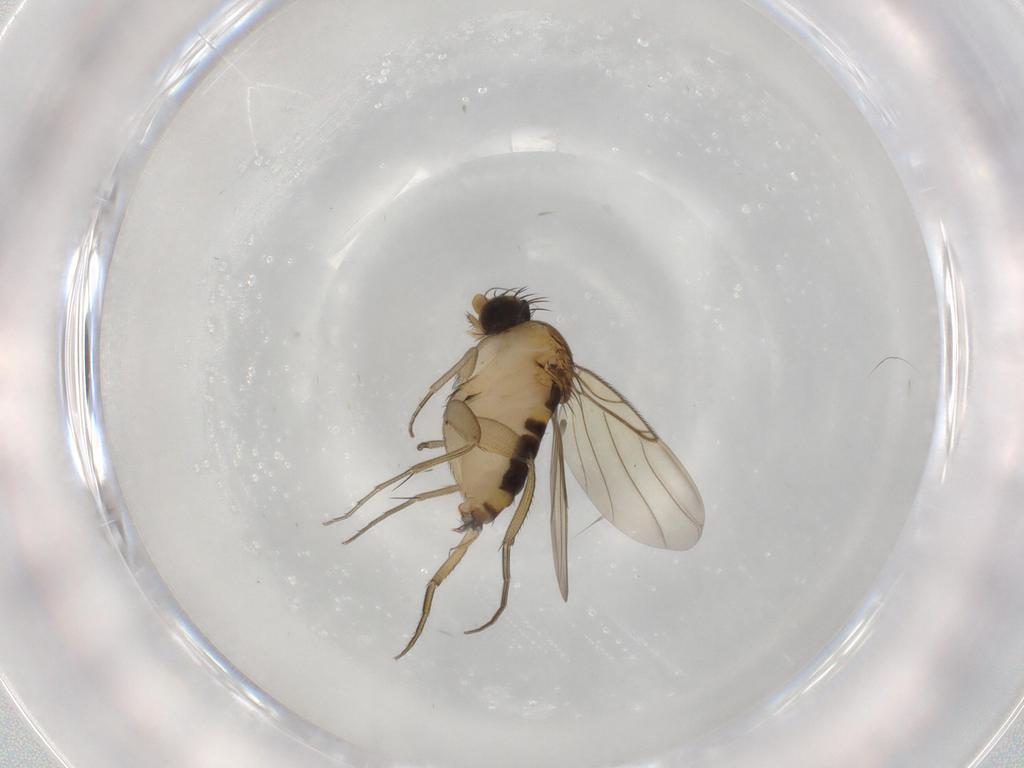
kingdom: Animalia
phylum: Arthropoda
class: Insecta
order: Diptera
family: Phoridae
